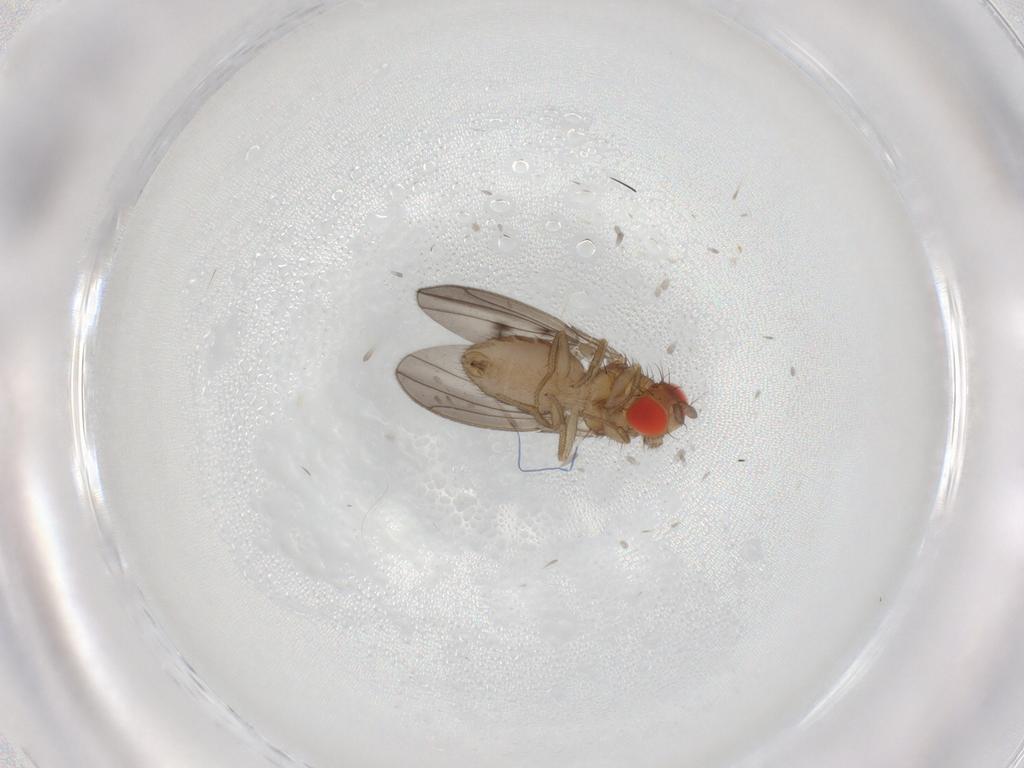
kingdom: Animalia
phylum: Arthropoda
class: Insecta
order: Diptera
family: Drosophilidae
